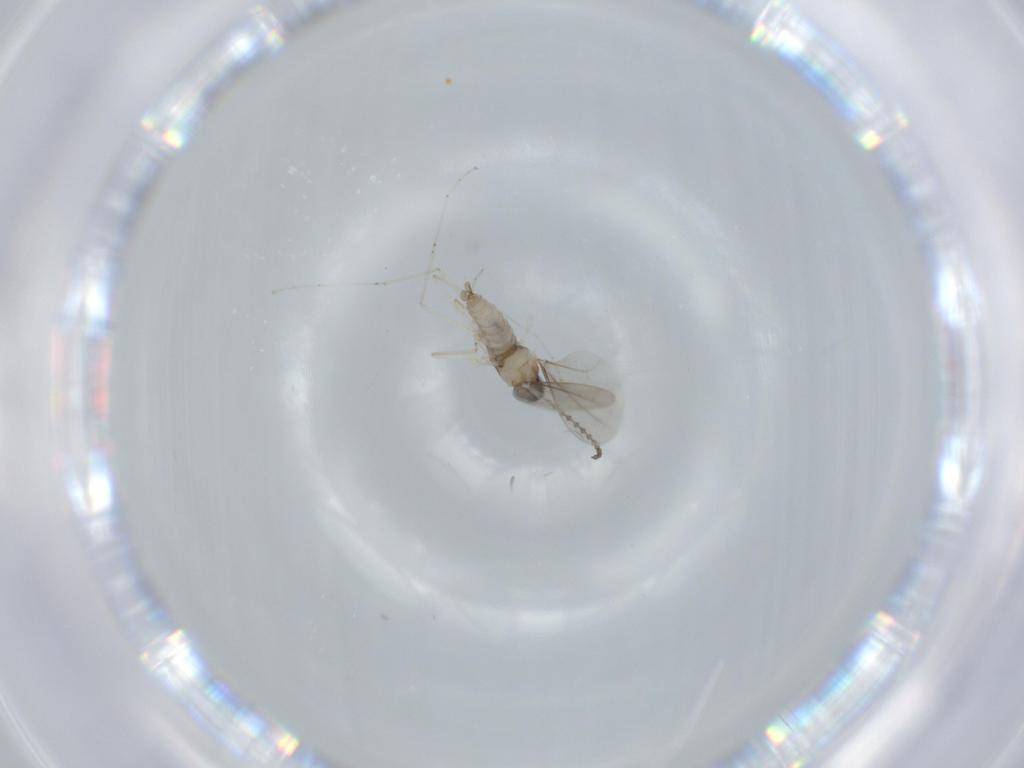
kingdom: Animalia
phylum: Arthropoda
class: Insecta
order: Diptera
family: Cecidomyiidae
